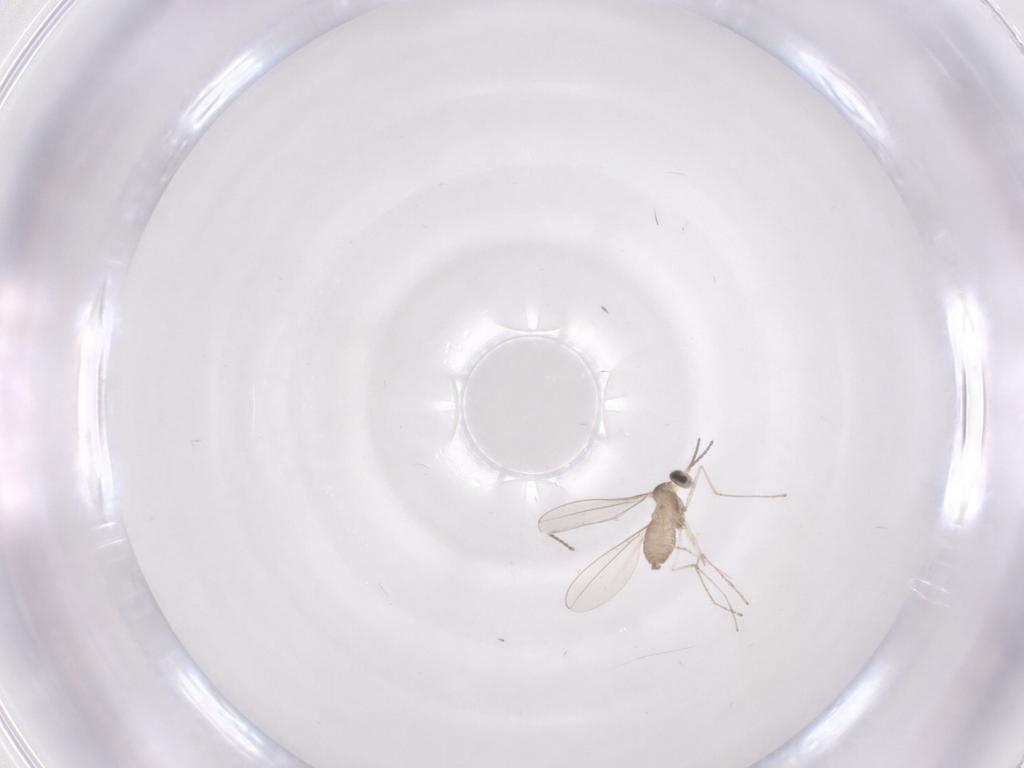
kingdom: Animalia
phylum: Arthropoda
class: Insecta
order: Diptera
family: Cecidomyiidae
